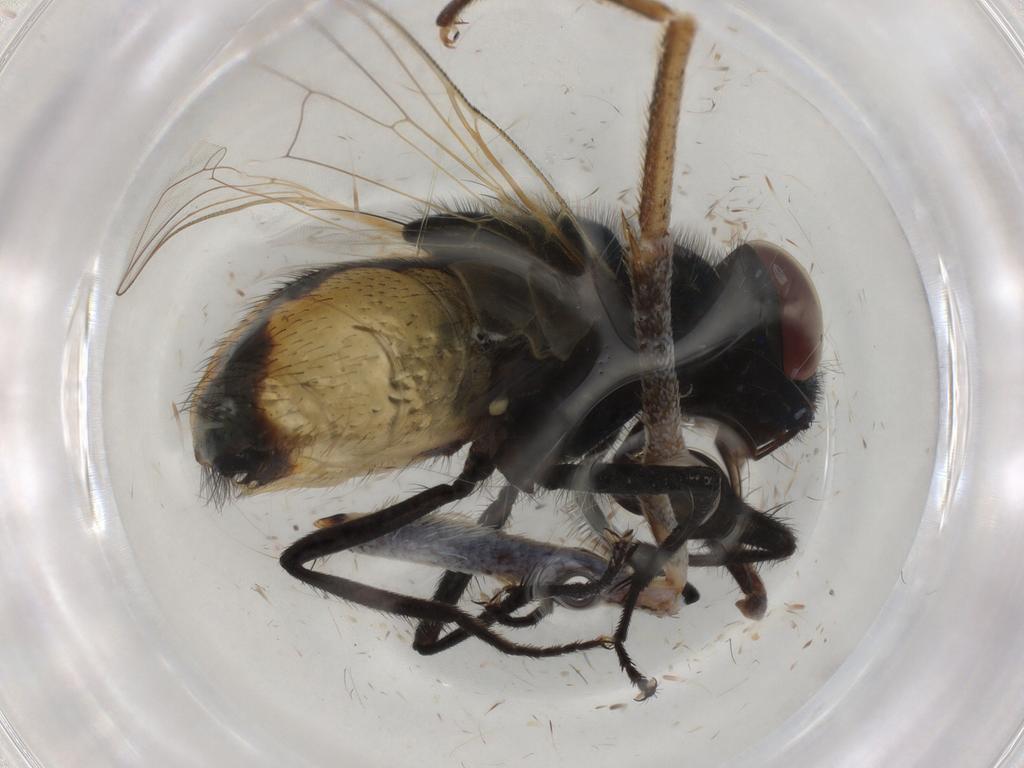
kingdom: Animalia
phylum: Arthropoda
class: Insecta
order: Diptera
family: Muscidae
